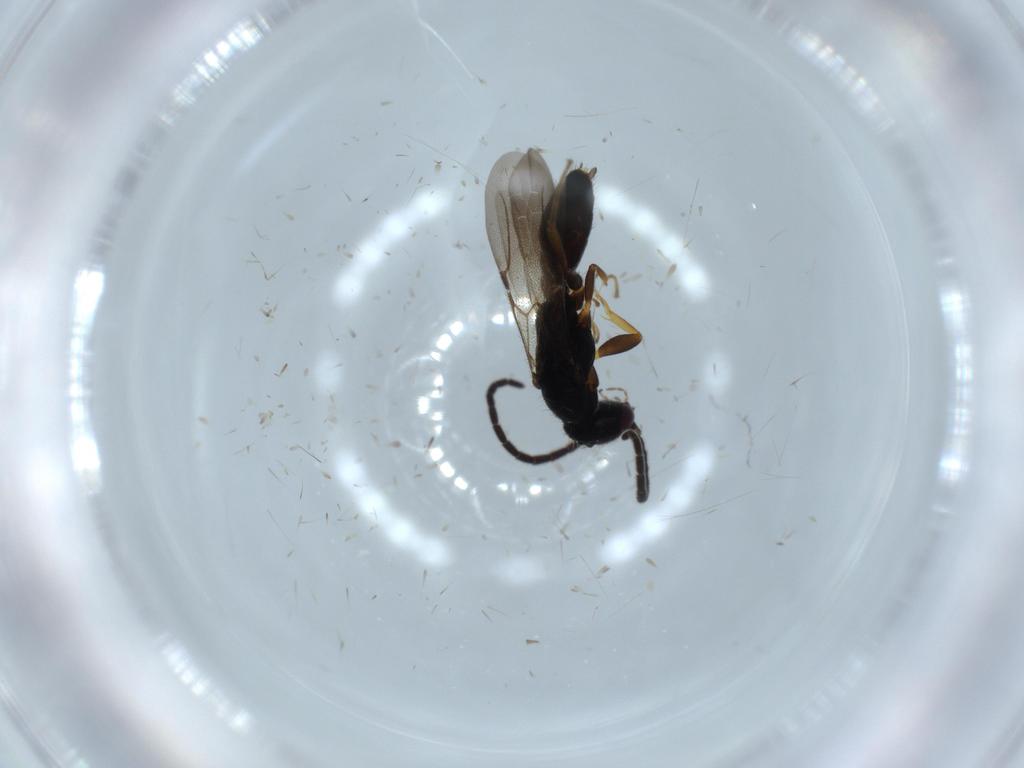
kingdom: Animalia
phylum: Arthropoda
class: Insecta
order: Hymenoptera
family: Bethylidae
